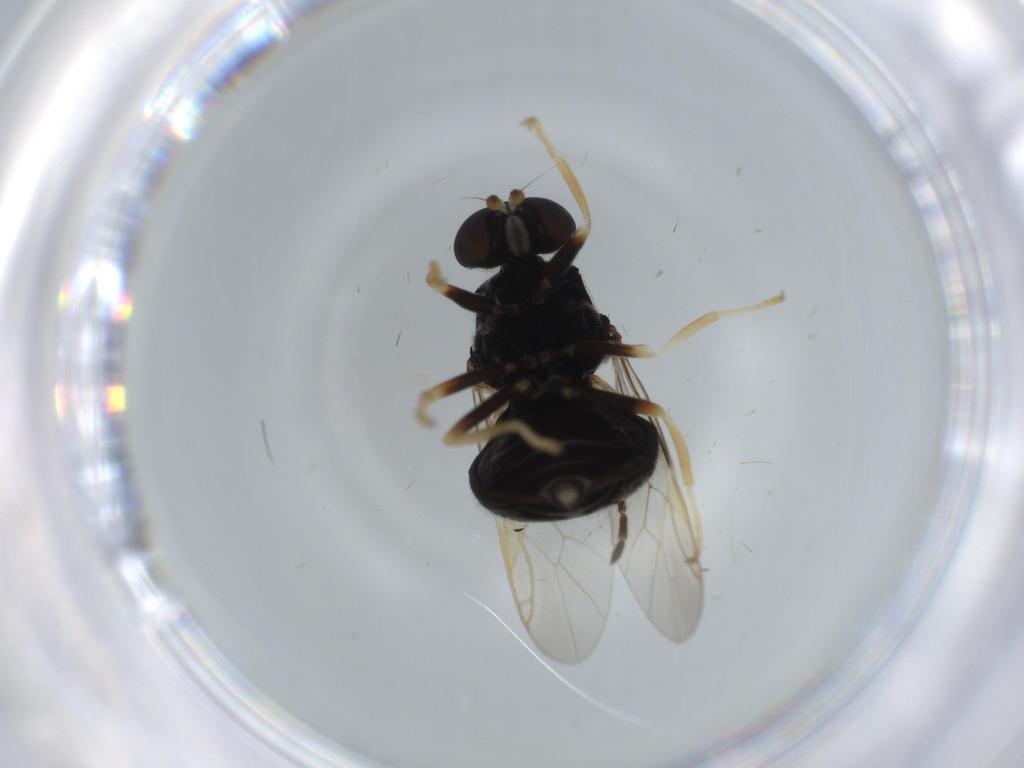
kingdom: Animalia
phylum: Arthropoda
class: Insecta
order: Diptera
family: Stratiomyidae
